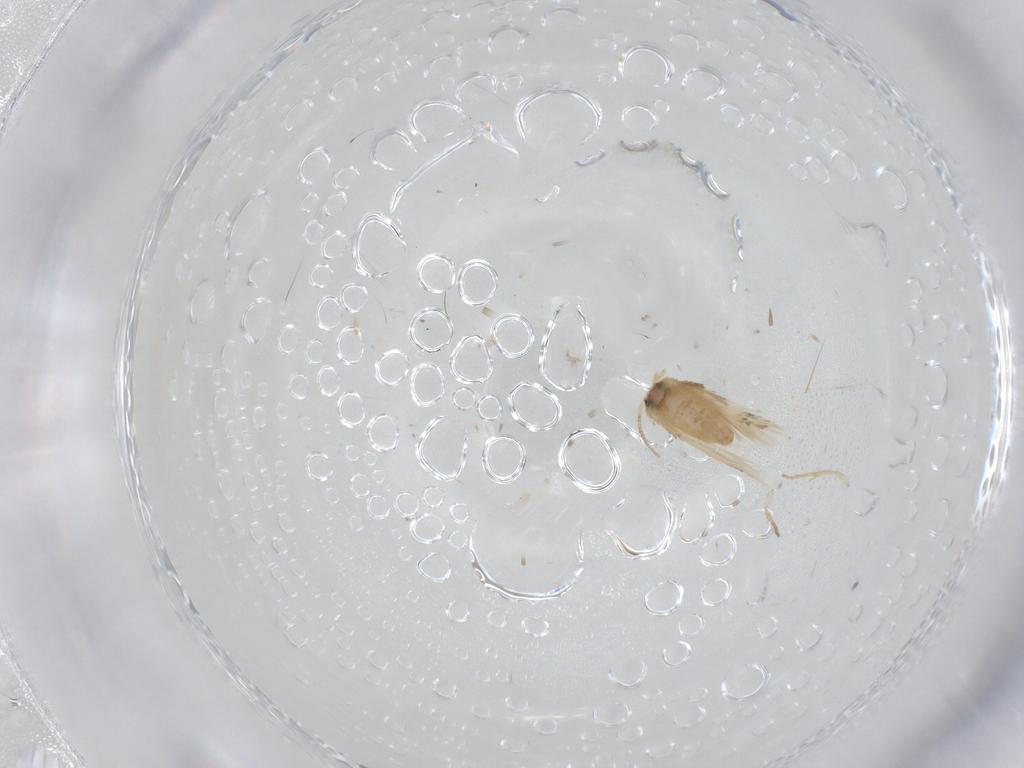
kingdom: Animalia
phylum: Arthropoda
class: Insecta
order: Lepidoptera
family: Crambidae
